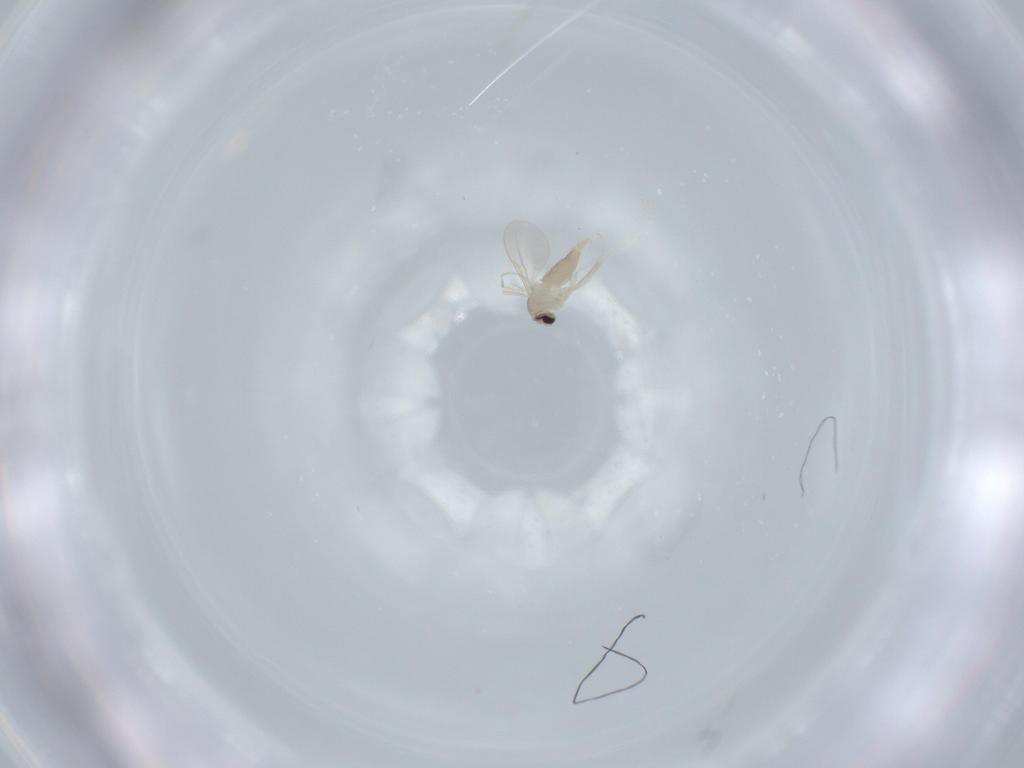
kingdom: Animalia
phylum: Arthropoda
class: Insecta
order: Diptera
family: Cecidomyiidae
